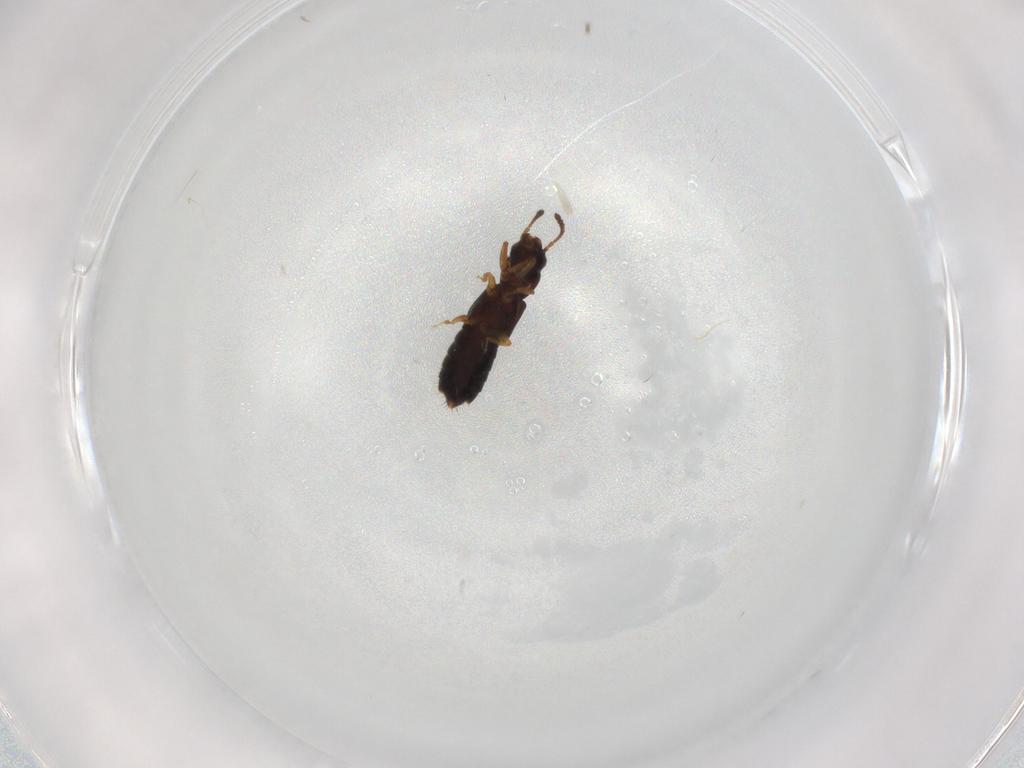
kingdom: Animalia
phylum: Arthropoda
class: Insecta
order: Coleoptera
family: Staphylinidae
